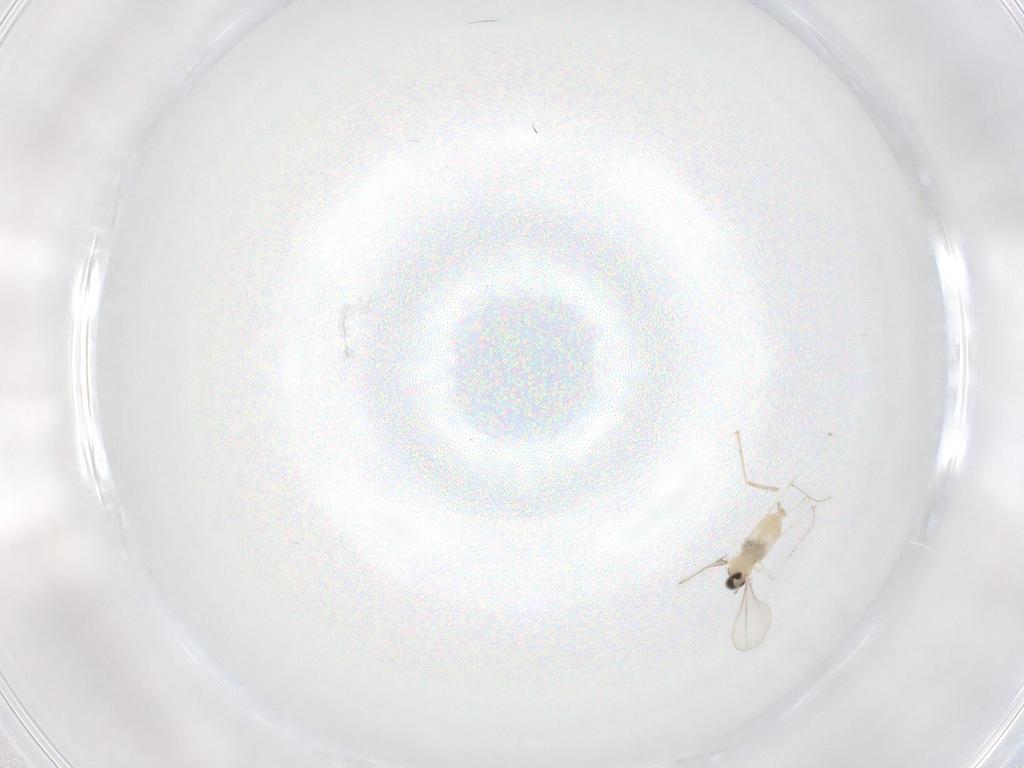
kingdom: Animalia
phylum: Arthropoda
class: Insecta
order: Diptera
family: Cecidomyiidae
